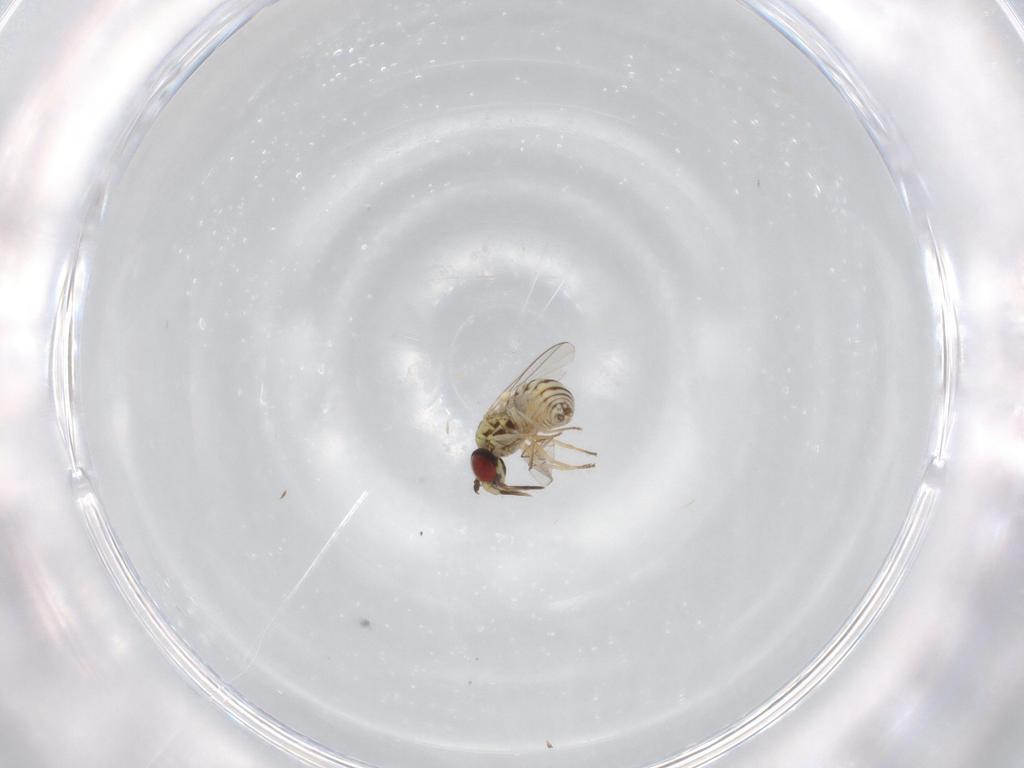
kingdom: Animalia
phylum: Arthropoda
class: Insecta
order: Diptera
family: Bombyliidae
